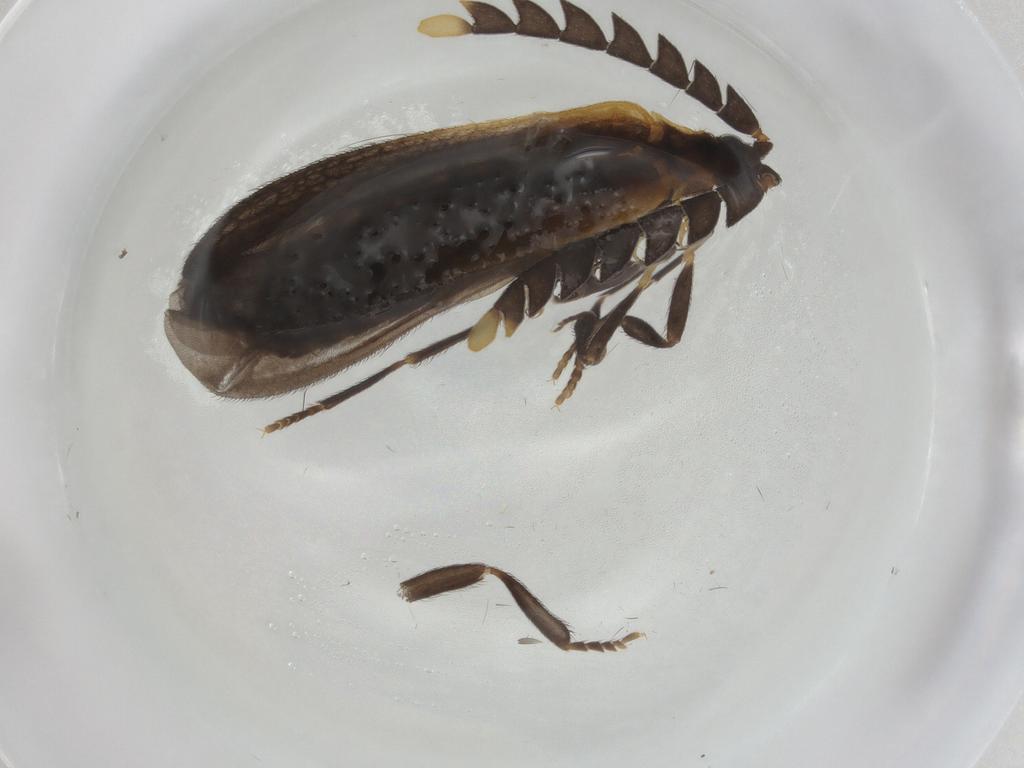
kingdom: Animalia
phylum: Arthropoda
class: Insecta
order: Coleoptera
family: Lycidae
